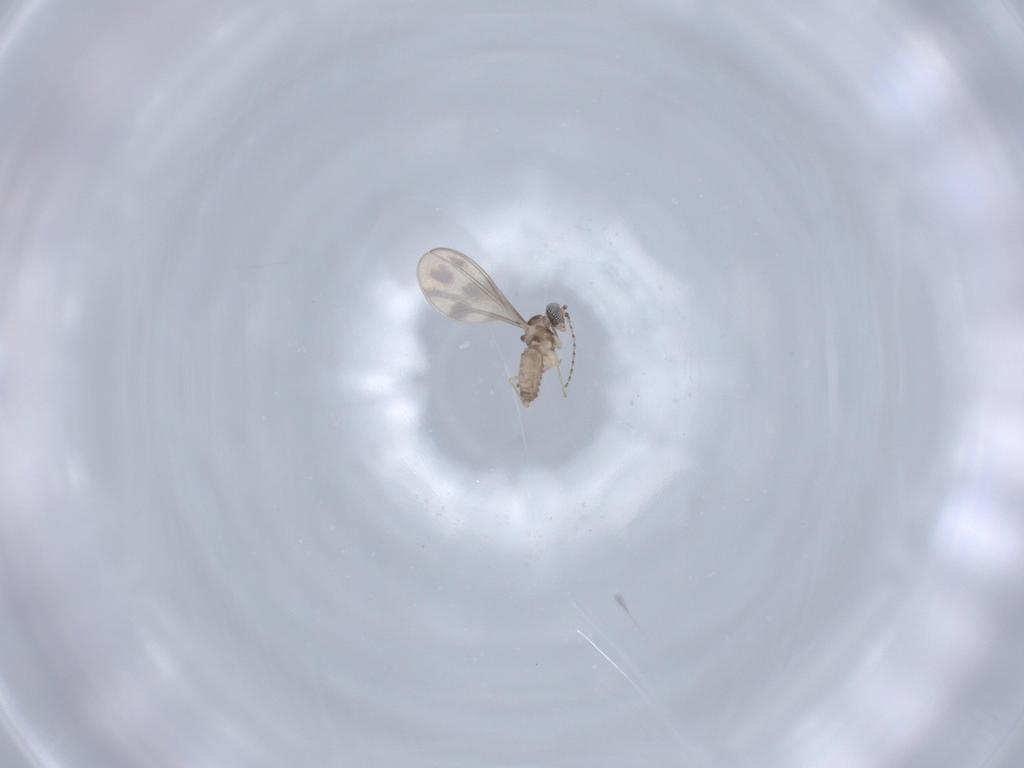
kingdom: Animalia
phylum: Arthropoda
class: Insecta
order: Diptera
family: Cecidomyiidae
